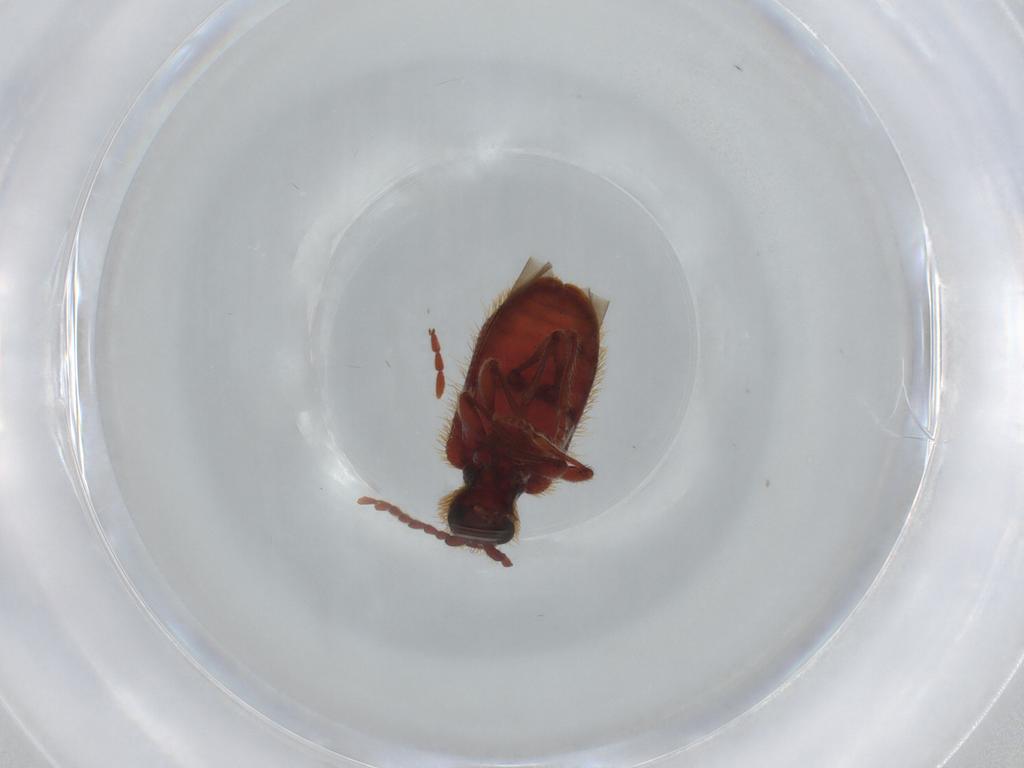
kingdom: Animalia
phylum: Arthropoda
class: Insecta
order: Coleoptera
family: Ptinidae
